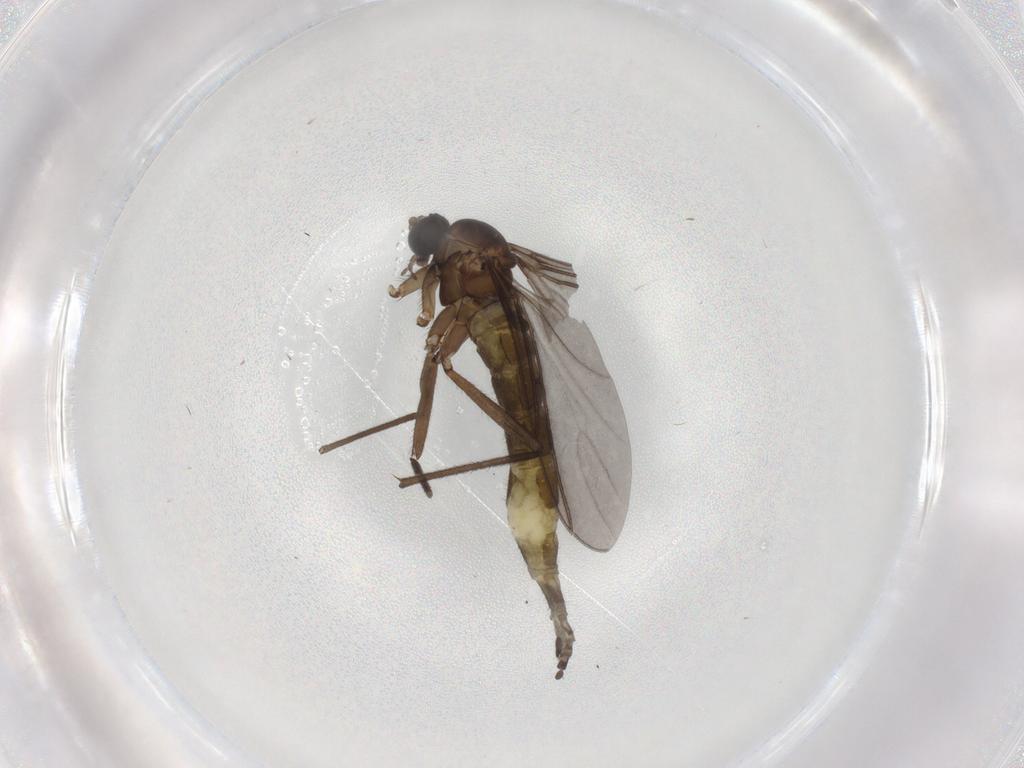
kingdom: Animalia
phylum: Arthropoda
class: Insecta
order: Diptera
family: Sciaridae
